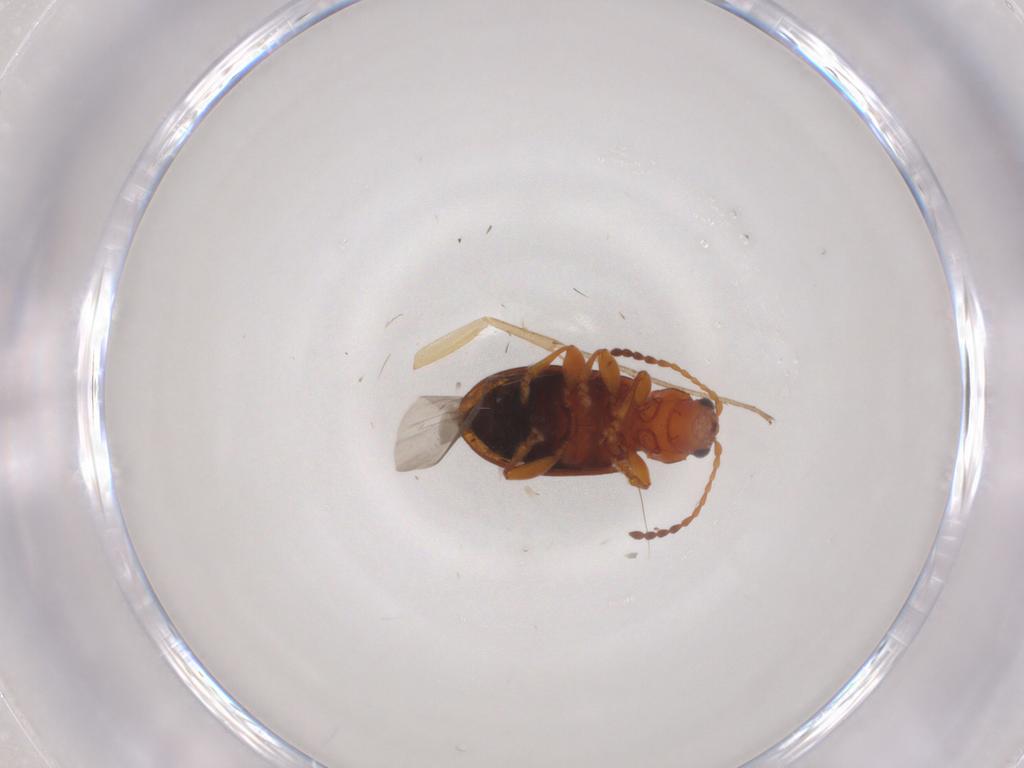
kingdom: Animalia
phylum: Arthropoda
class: Insecta
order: Coleoptera
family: Chrysomelidae
